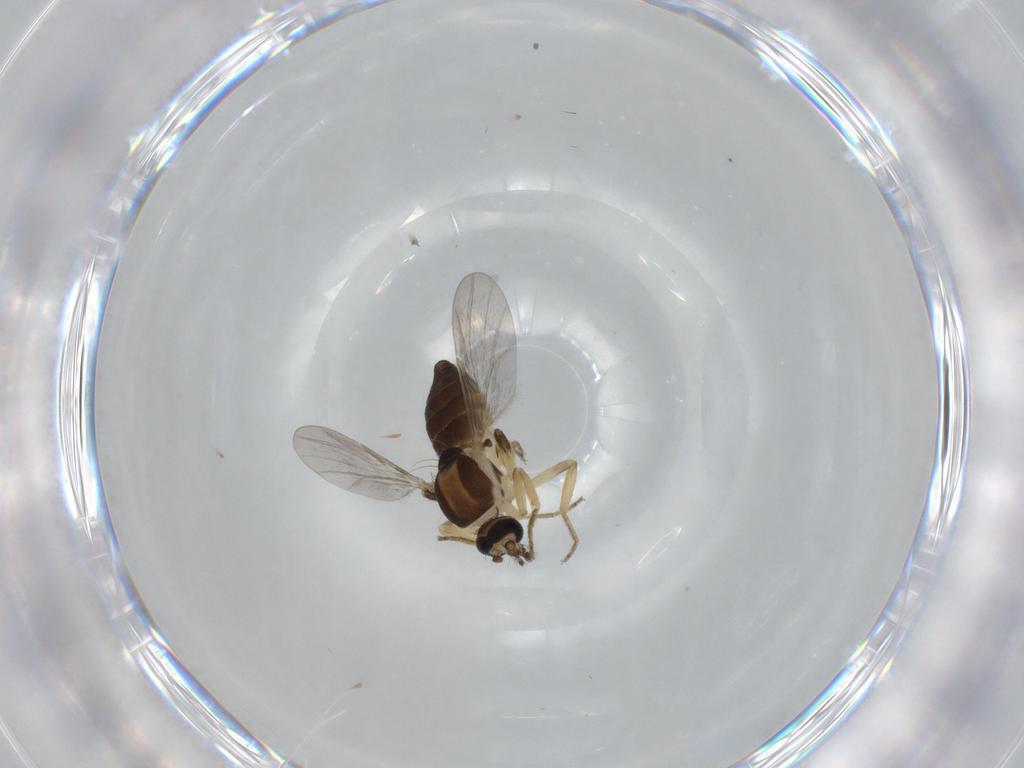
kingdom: Animalia
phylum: Arthropoda
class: Insecta
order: Diptera
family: Ceratopogonidae
